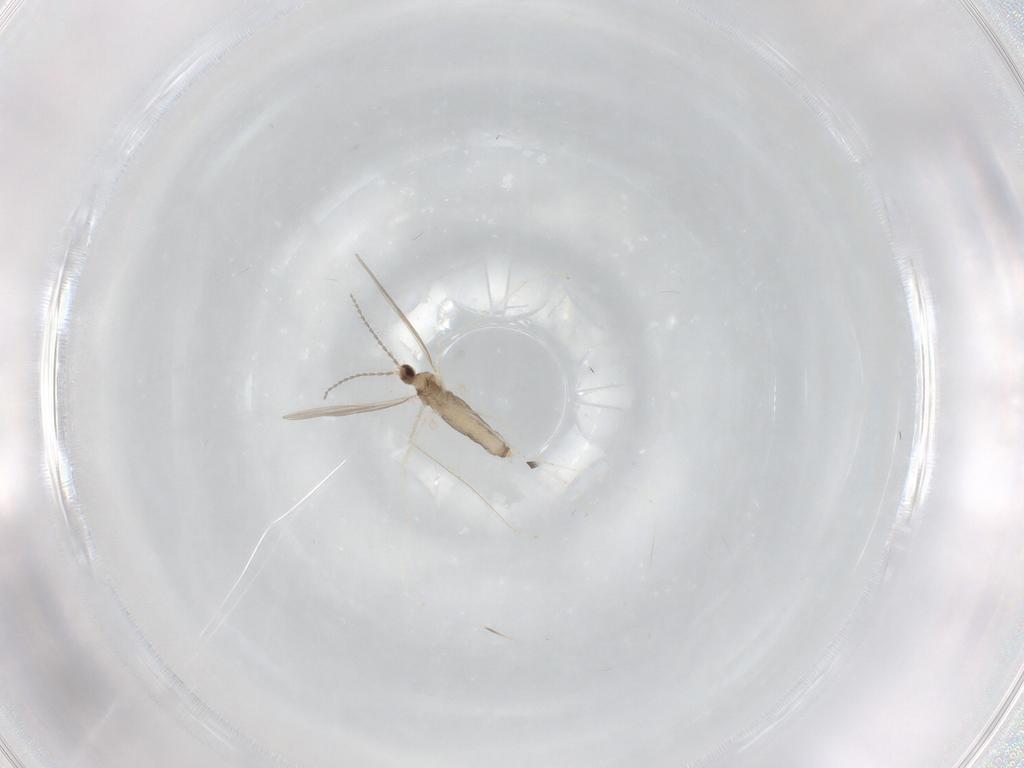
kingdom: Animalia
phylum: Arthropoda
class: Insecta
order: Diptera
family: Cecidomyiidae
